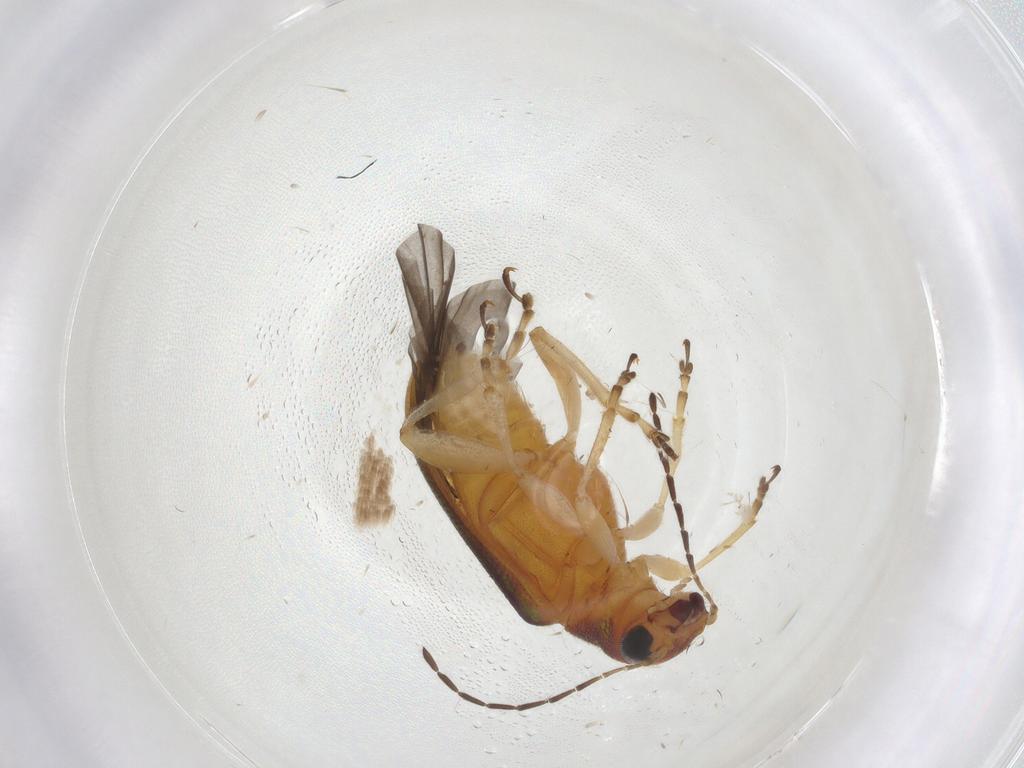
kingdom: Animalia
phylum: Arthropoda
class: Insecta
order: Coleoptera
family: Chrysomelidae
